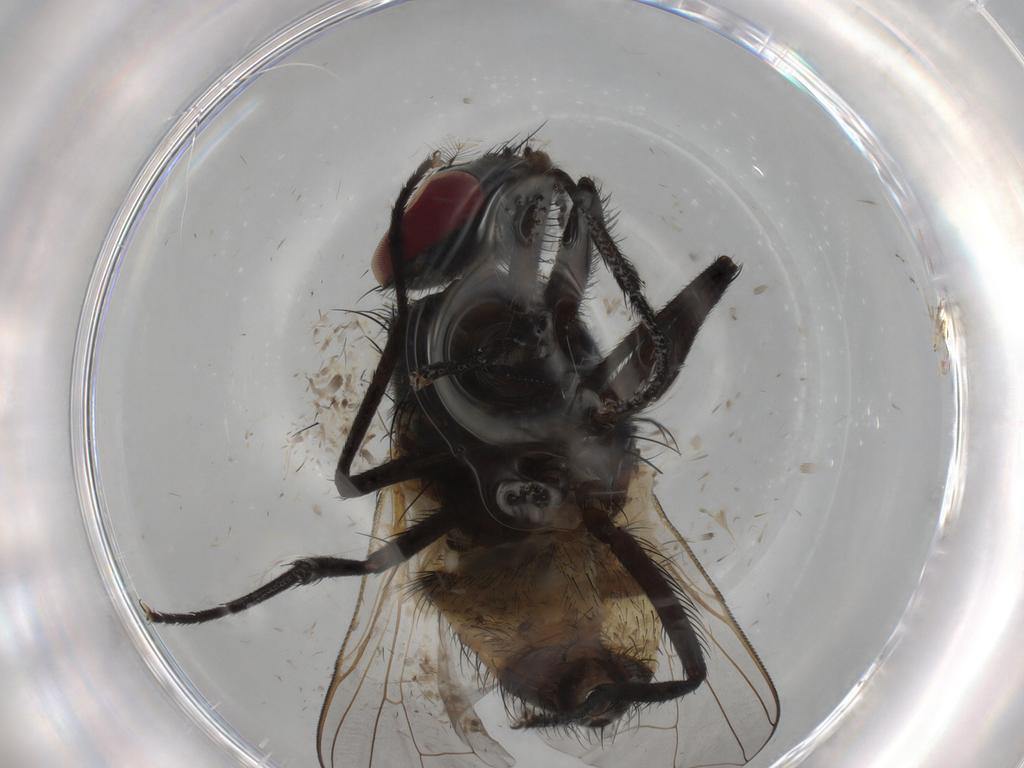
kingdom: Animalia
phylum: Arthropoda
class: Insecta
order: Diptera
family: Muscidae
